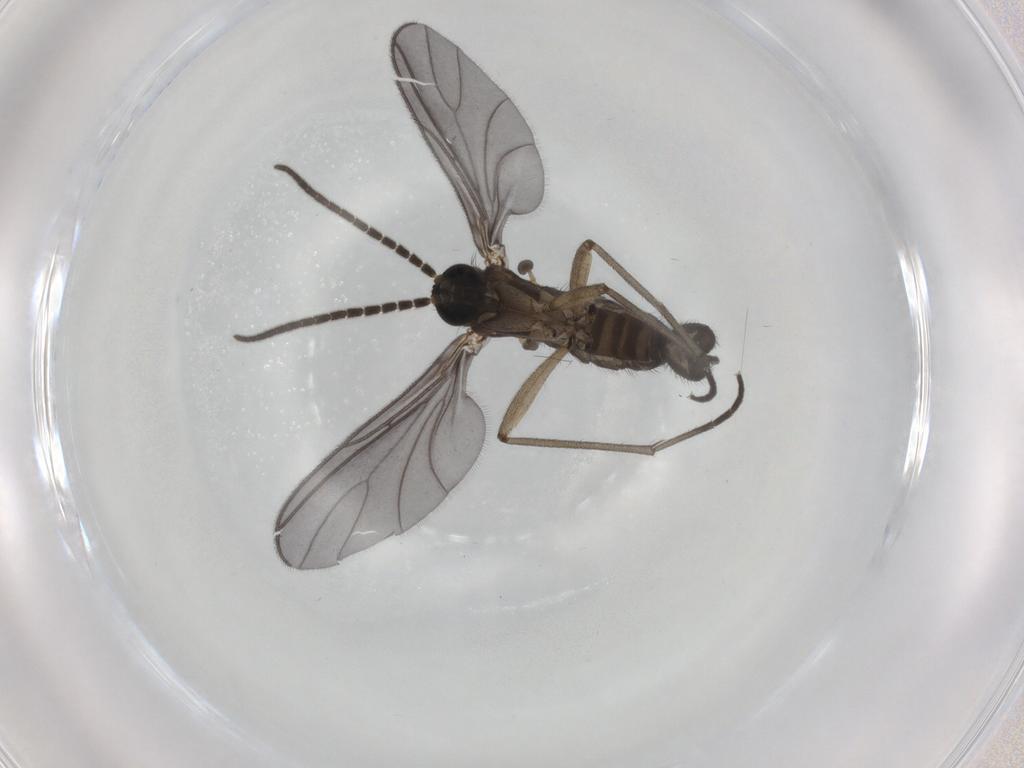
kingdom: Animalia
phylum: Arthropoda
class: Insecta
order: Diptera
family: Sciaridae
